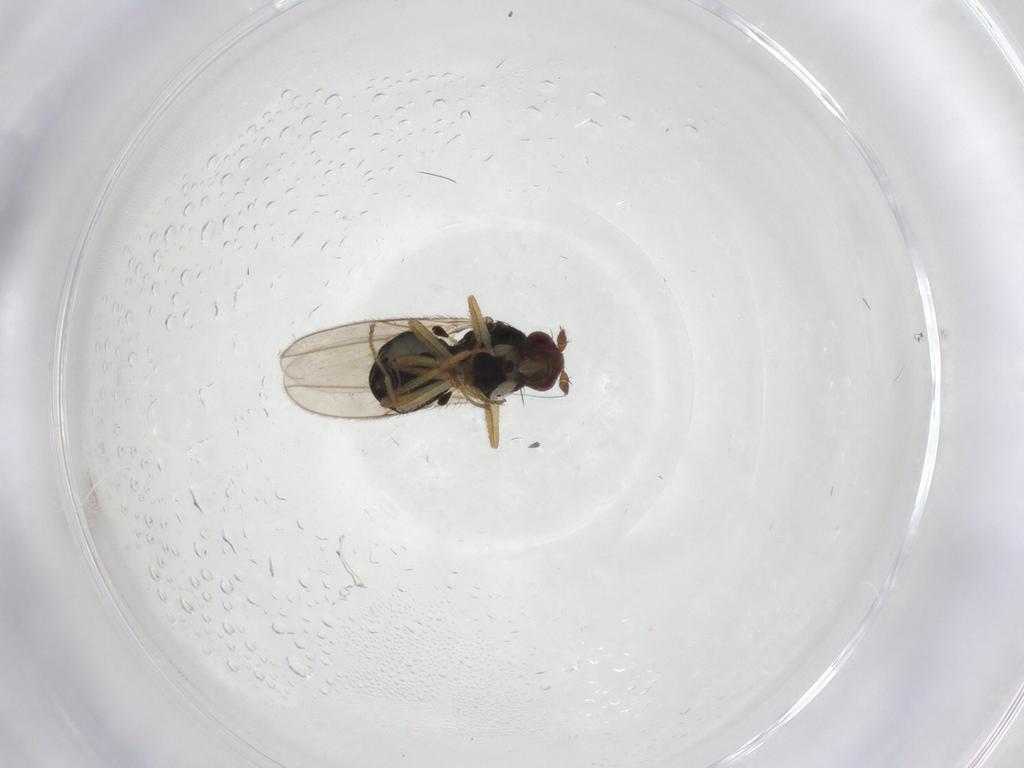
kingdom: Animalia
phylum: Arthropoda
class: Insecta
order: Diptera
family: Sphaeroceridae
